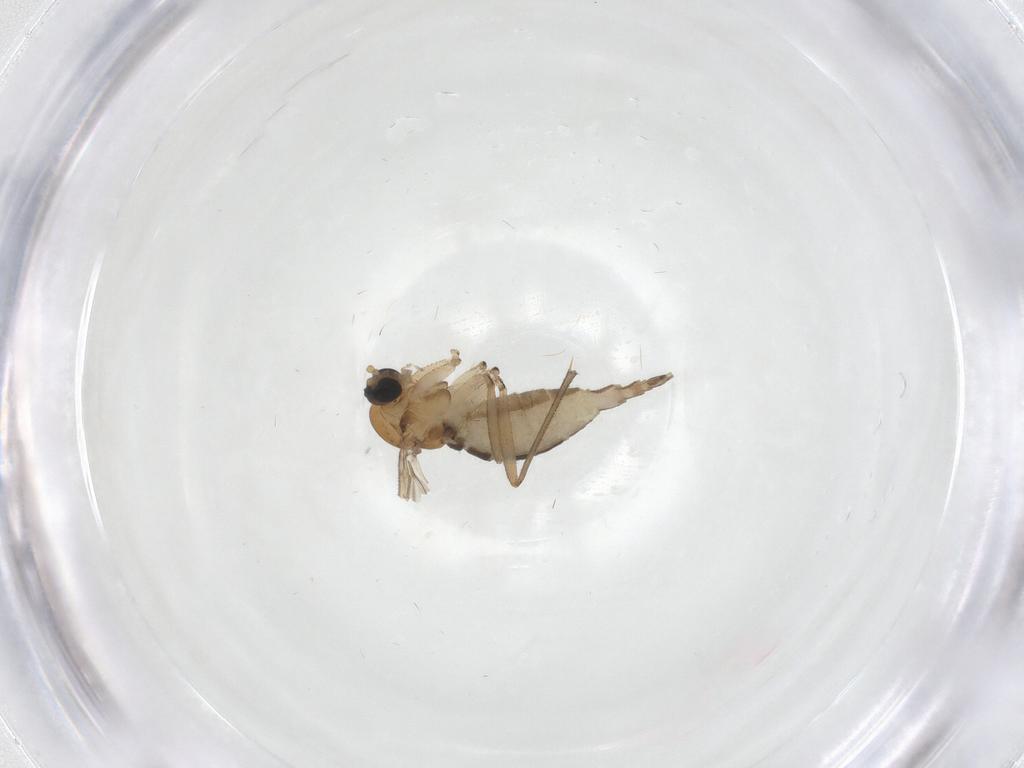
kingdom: Animalia
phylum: Arthropoda
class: Insecta
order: Diptera
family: Sciaridae
